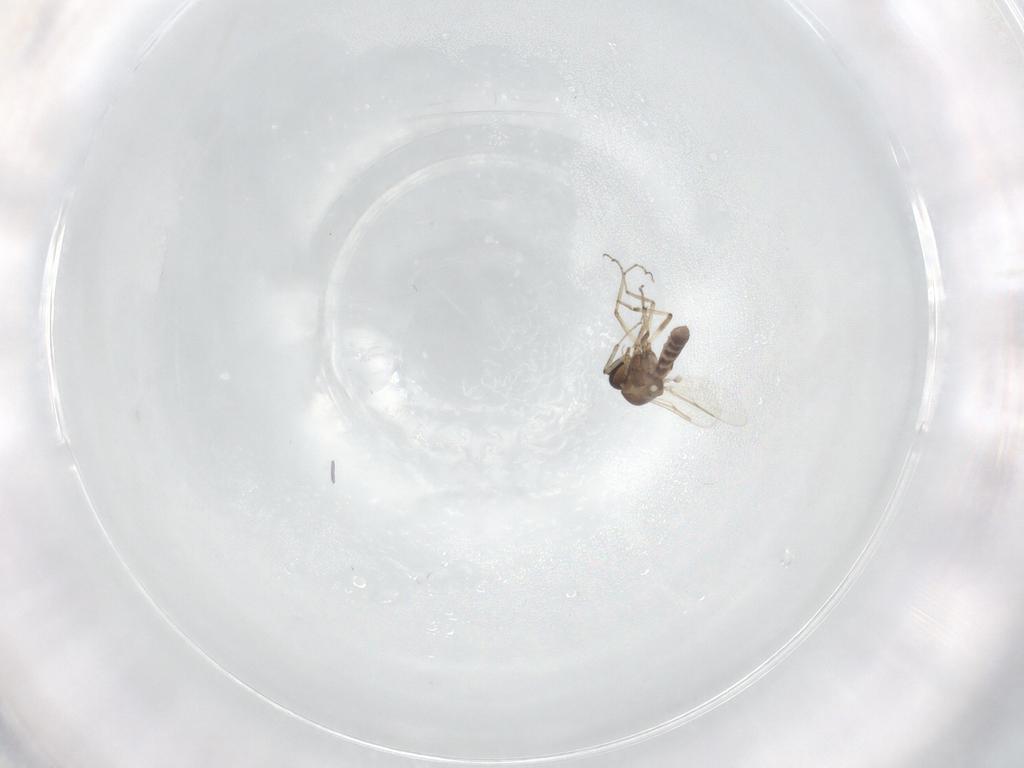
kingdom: Animalia
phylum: Arthropoda
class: Insecta
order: Diptera
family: Ceratopogonidae
